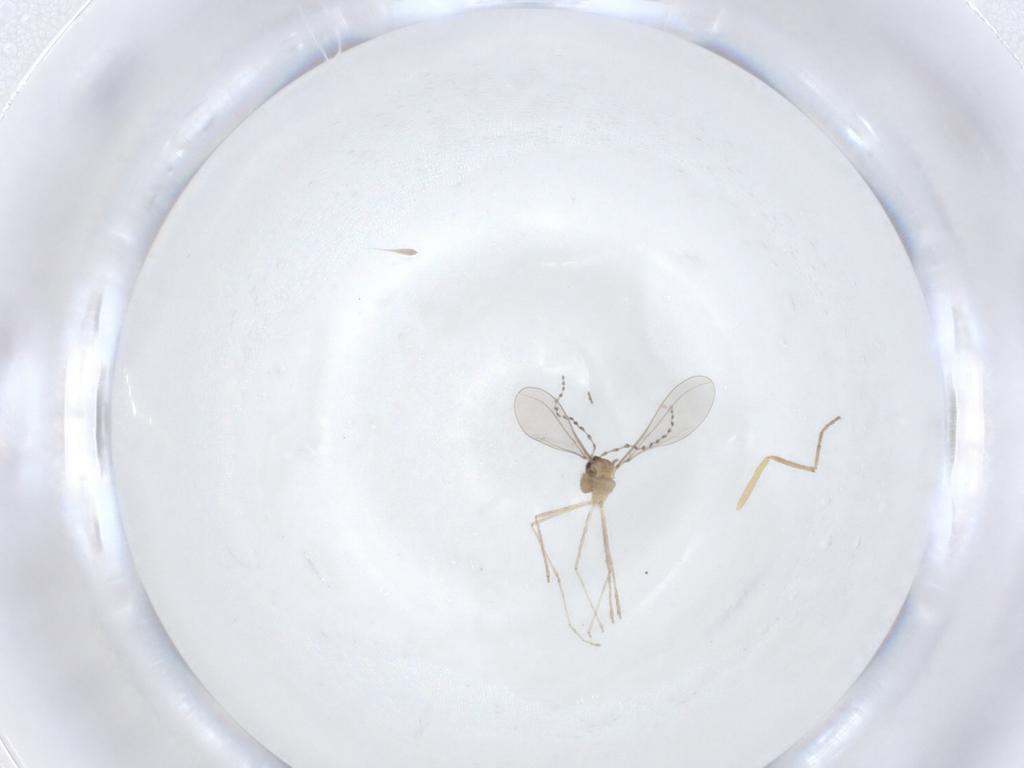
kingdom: Animalia
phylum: Arthropoda
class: Insecta
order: Diptera
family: Cecidomyiidae
